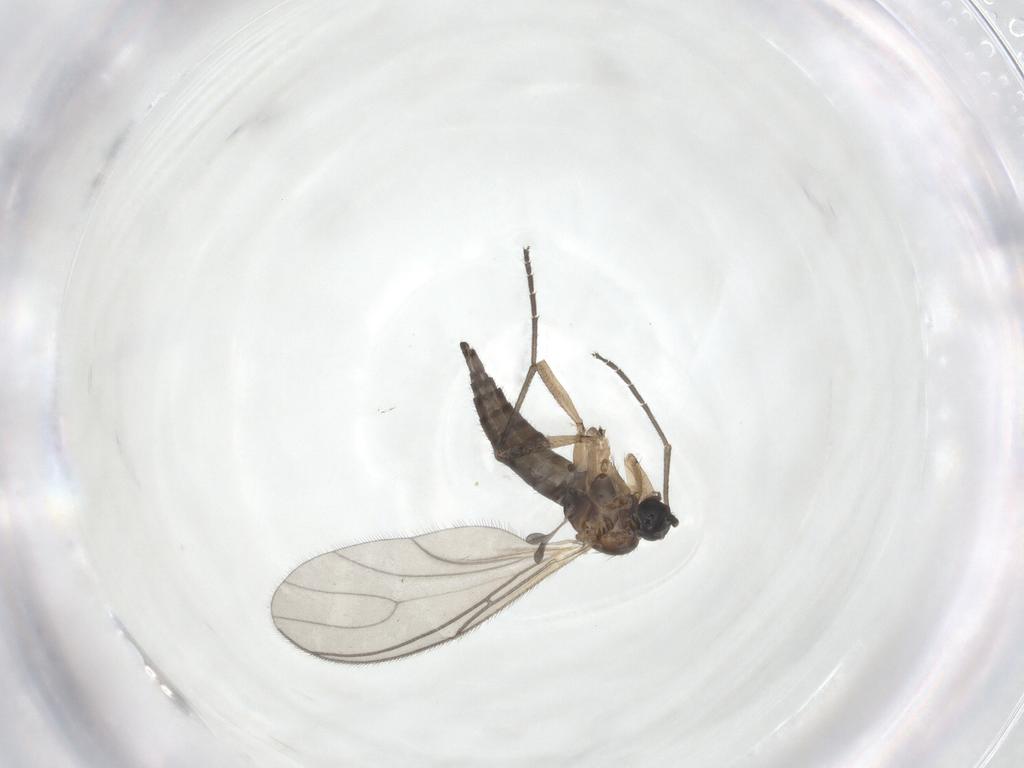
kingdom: Animalia
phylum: Arthropoda
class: Insecta
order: Diptera
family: Sciaridae
